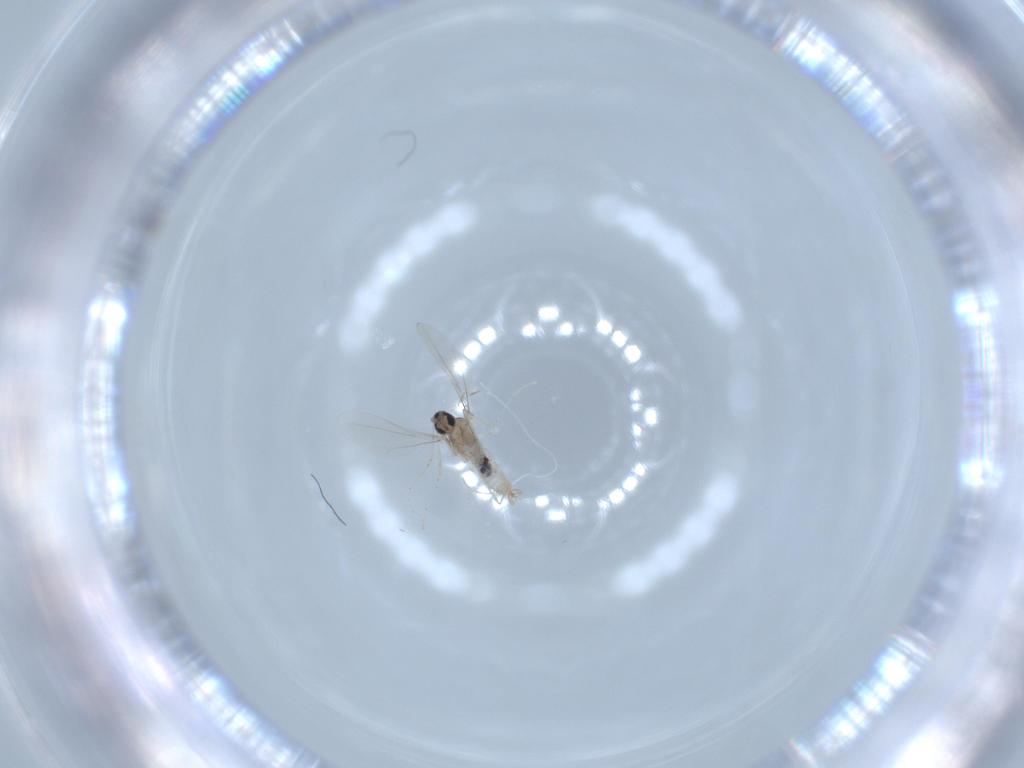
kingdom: Animalia
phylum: Arthropoda
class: Insecta
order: Diptera
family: Cecidomyiidae
